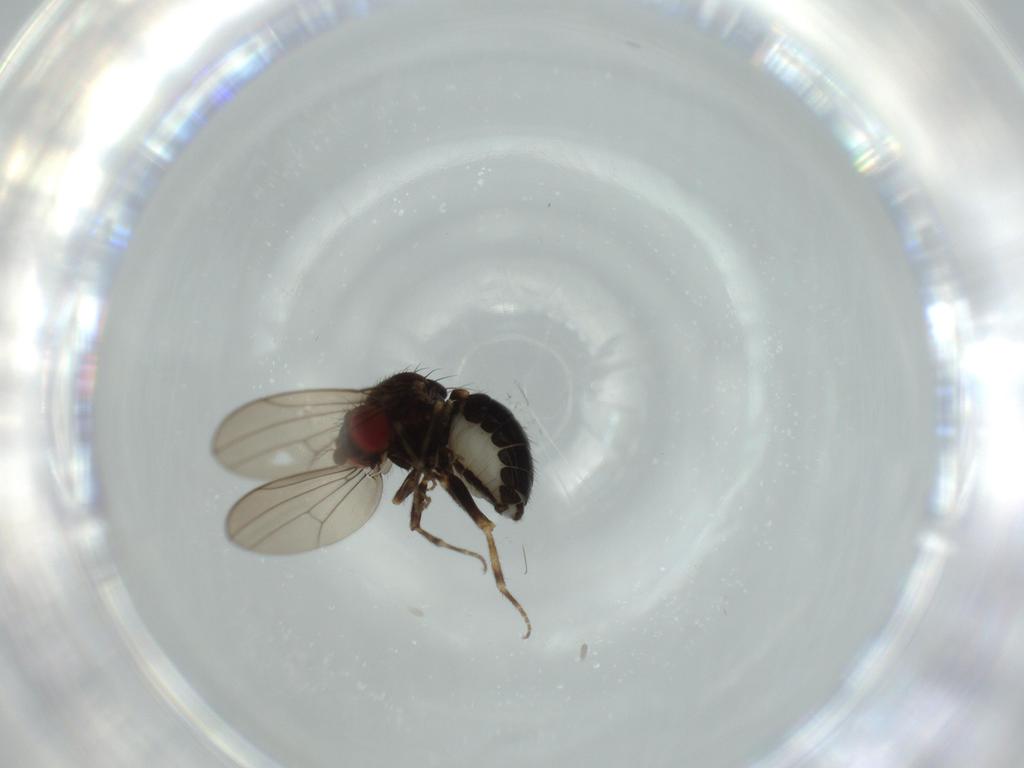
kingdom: Animalia
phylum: Arthropoda
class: Insecta
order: Diptera
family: Drosophilidae
